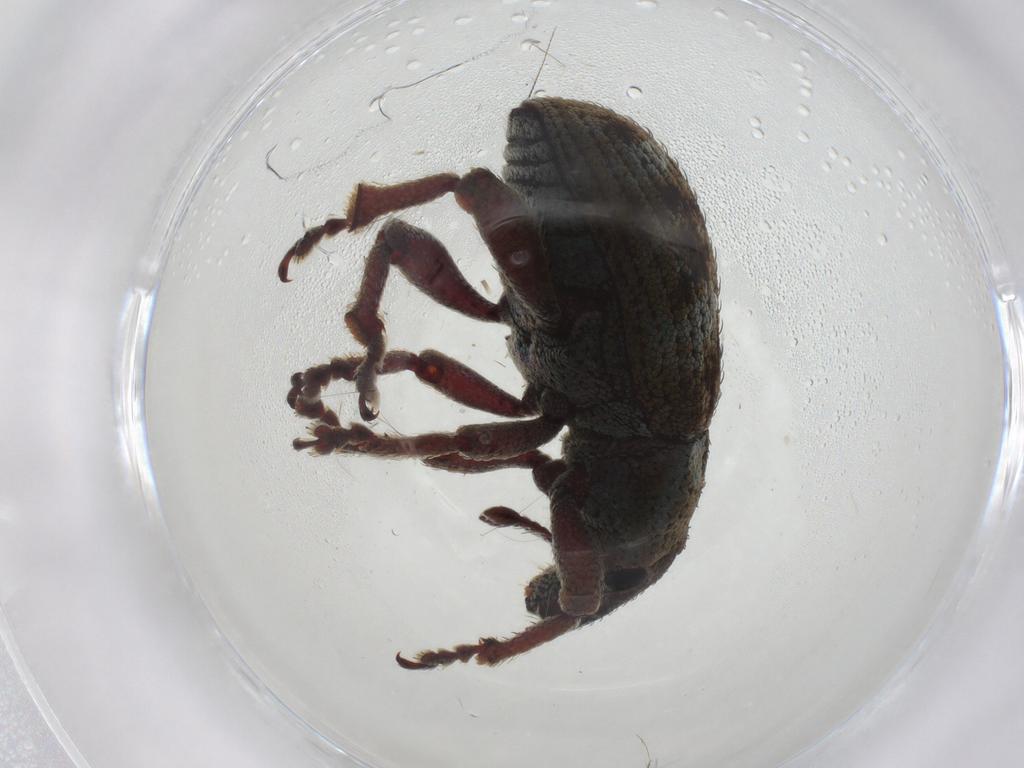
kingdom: Animalia
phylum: Arthropoda
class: Insecta
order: Coleoptera
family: Curculionidae
